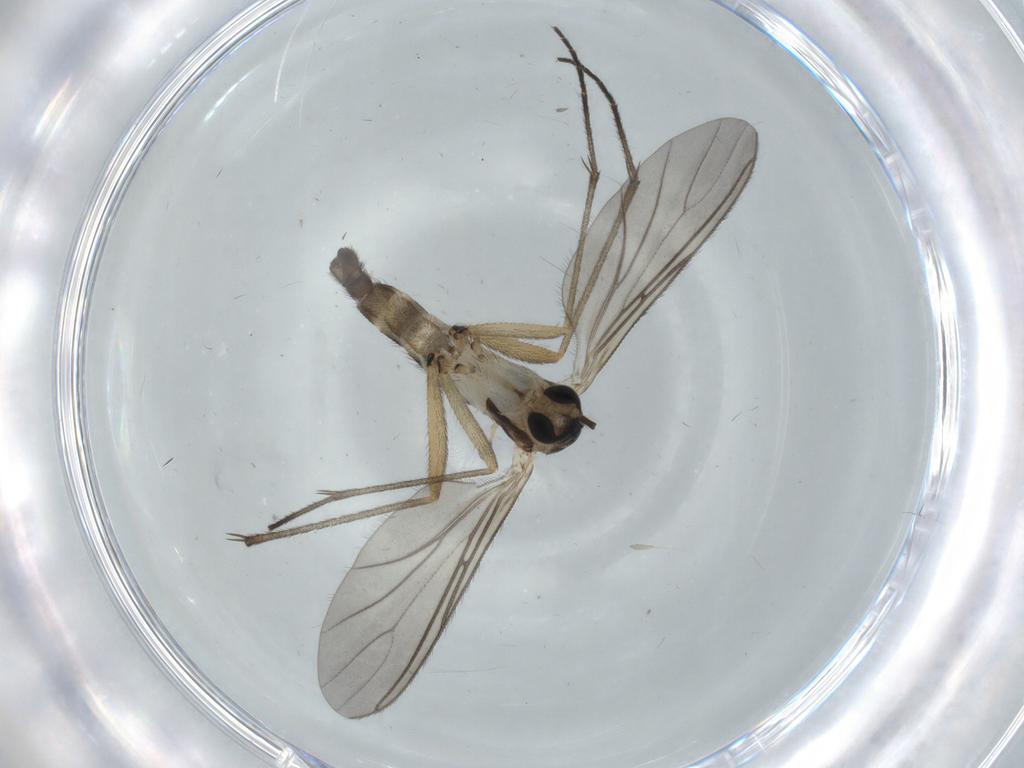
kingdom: Animalia
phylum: Arthropoda
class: Insecta
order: Diptera
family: Sciaridae
